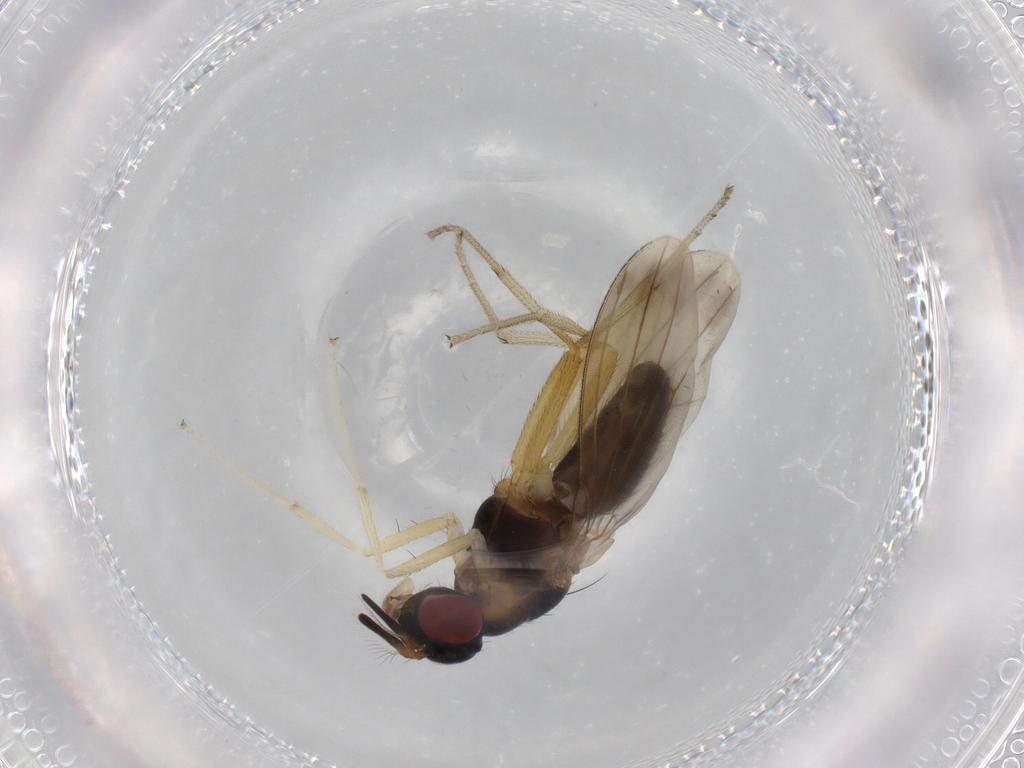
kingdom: Animalia
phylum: Arthropoda
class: Insecta
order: Diptera
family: Lauxaniidae
